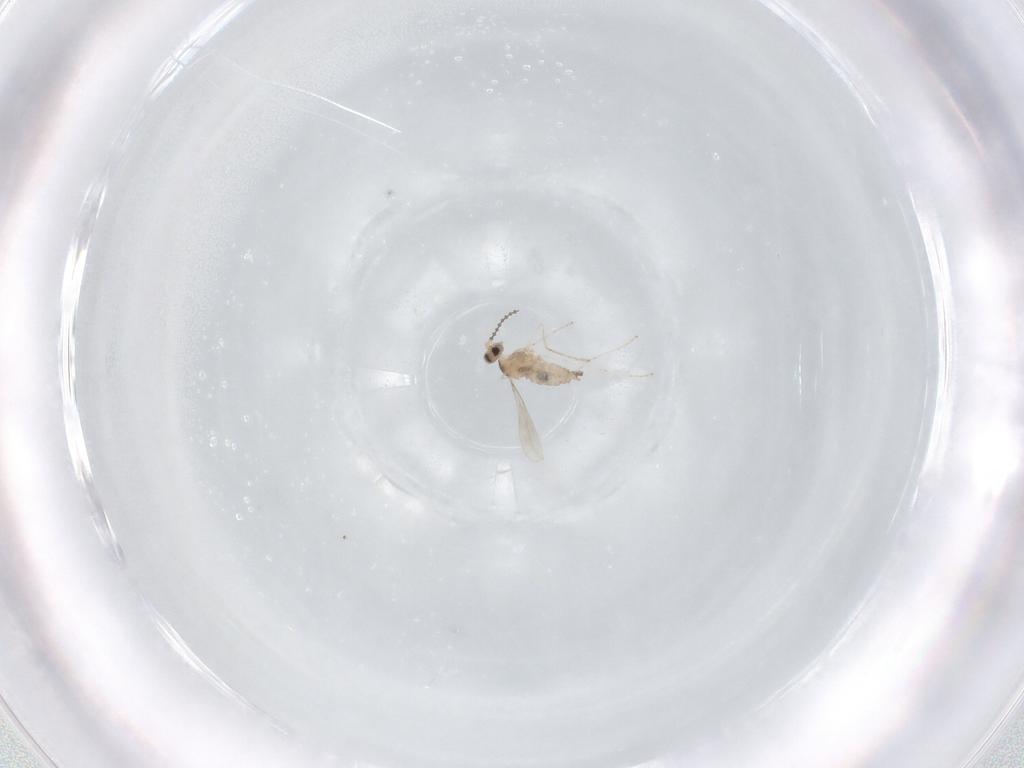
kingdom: Animalia
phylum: Arthropoda
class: Insecta
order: Diptera
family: Cecidomyiidae
